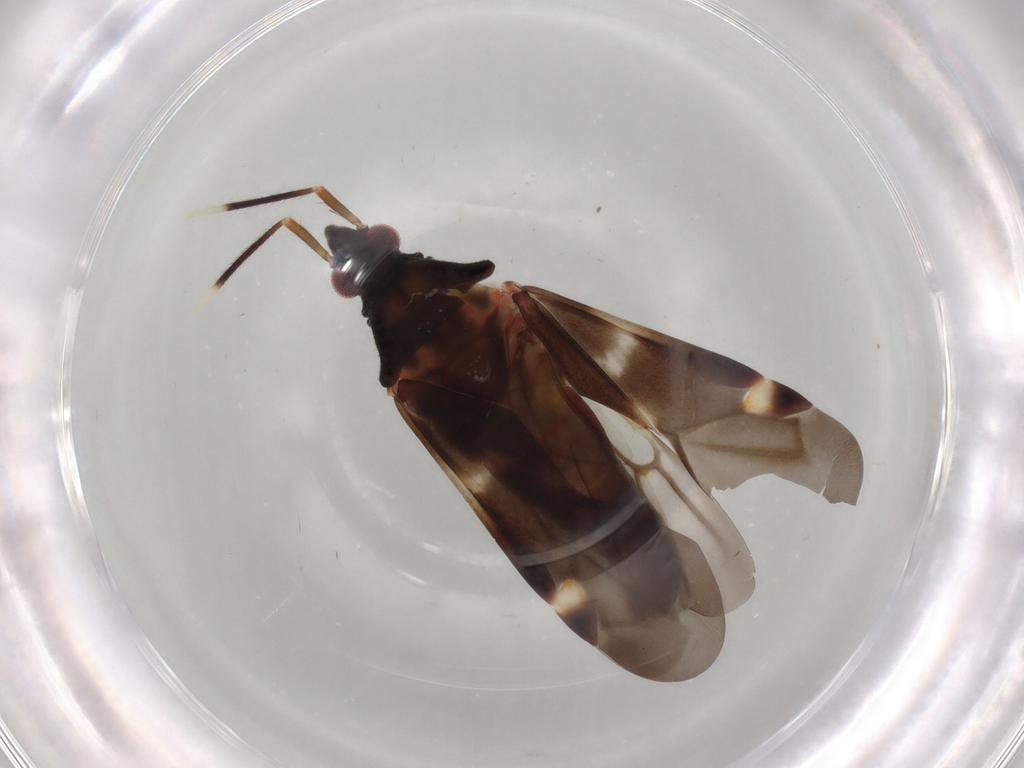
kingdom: Animalia
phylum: Arthropoda
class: Insecta
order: Hemiptera
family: Miridae
